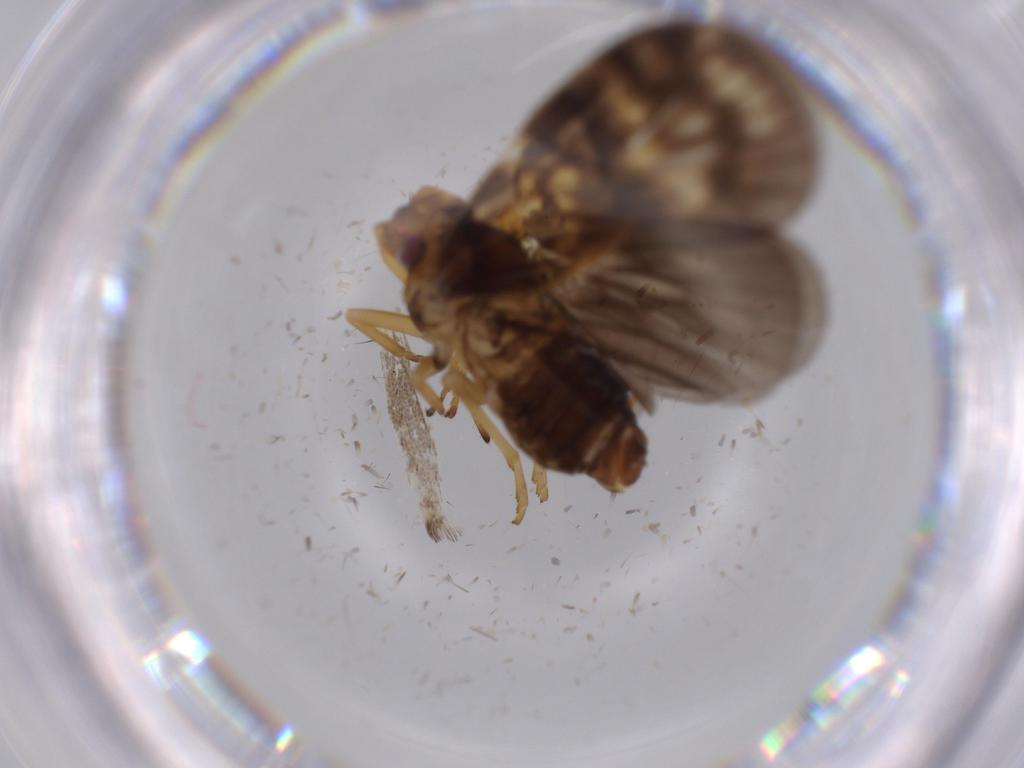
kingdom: Animalia
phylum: Arthropoda
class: Insecta
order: Hemiptera
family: Cixiidae
